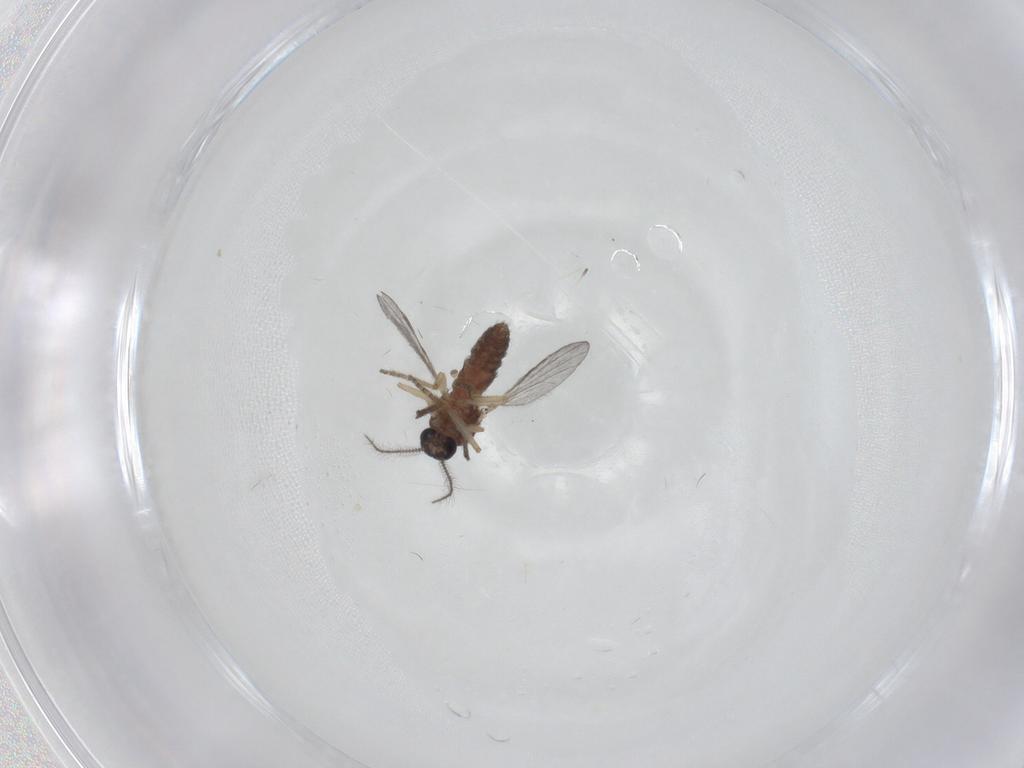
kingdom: Animalia
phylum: Arthropoda
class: Insecta
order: Diptera
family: Ceratopogonidae
